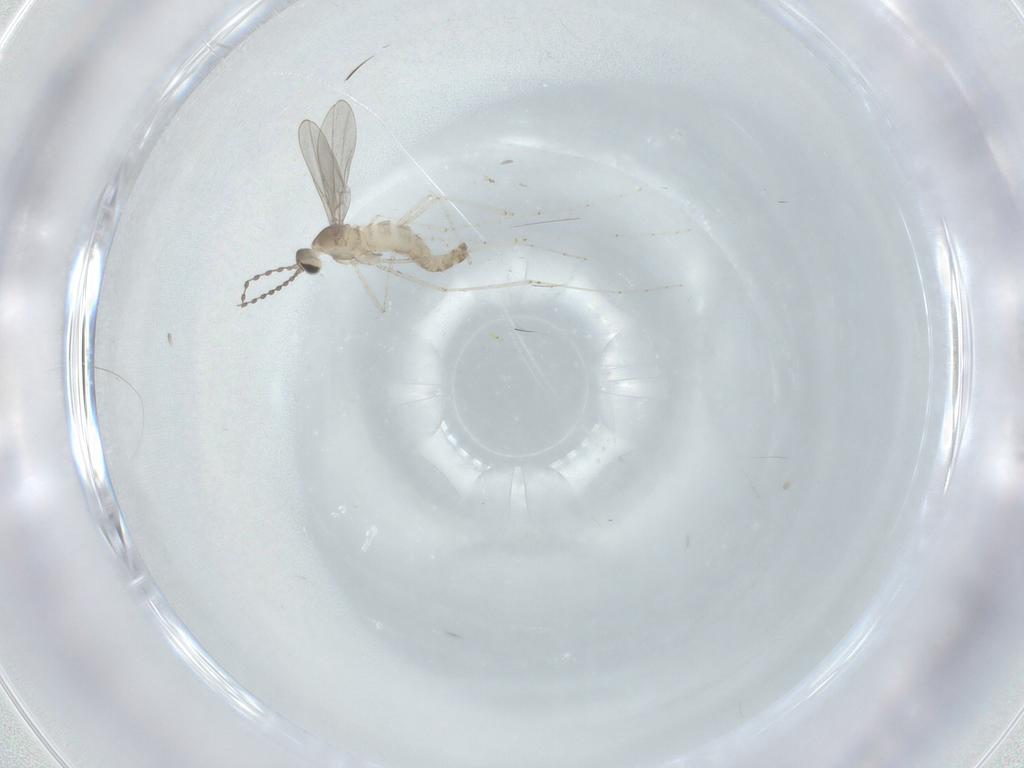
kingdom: Animalia
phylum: Arthropoda
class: Insecta
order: Diptera
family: Cecidomyiidae
